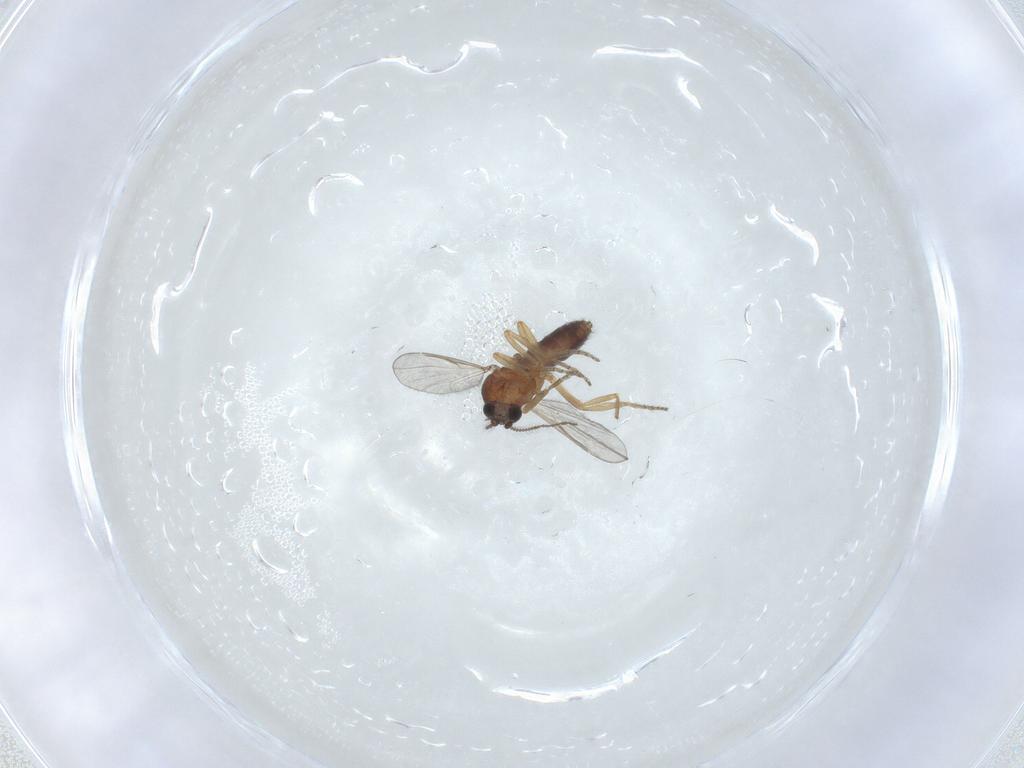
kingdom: Animalia
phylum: Arthropoda
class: Insecta
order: Diptera
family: Ceratopogonidae
